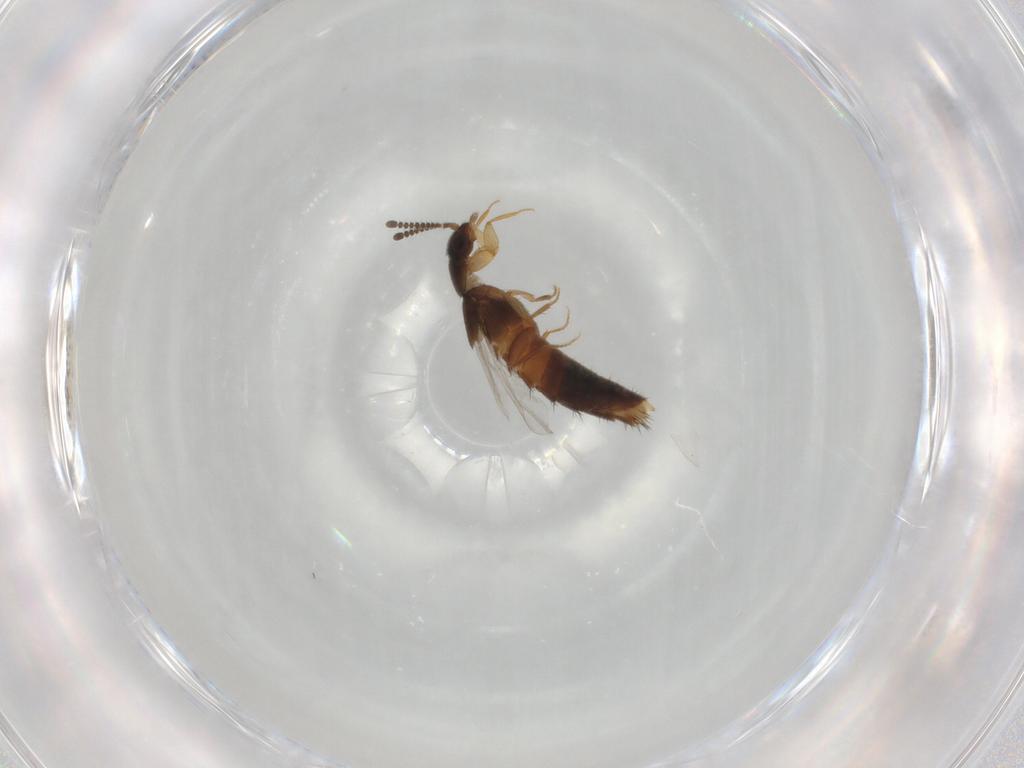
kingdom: Animalia
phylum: Arthropoda
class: Insecta
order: Coleoptera
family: Staphylinidae
